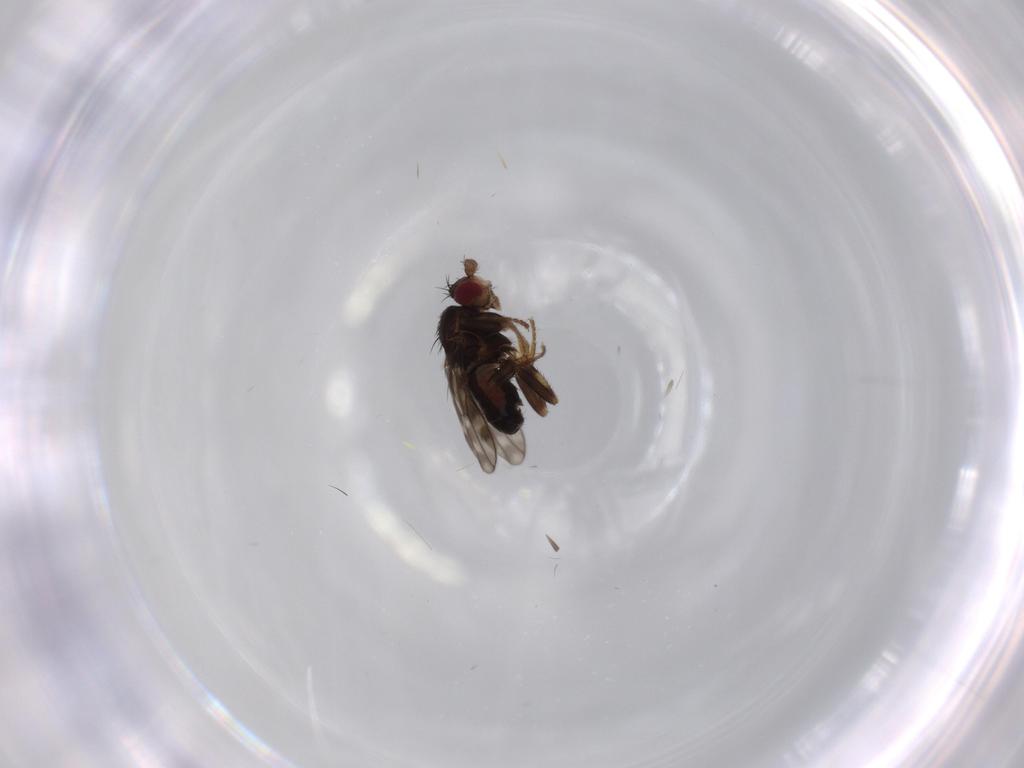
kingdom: Animalia
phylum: Arthropoda
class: Insecta
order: Diptera
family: Sphaeroceridae
